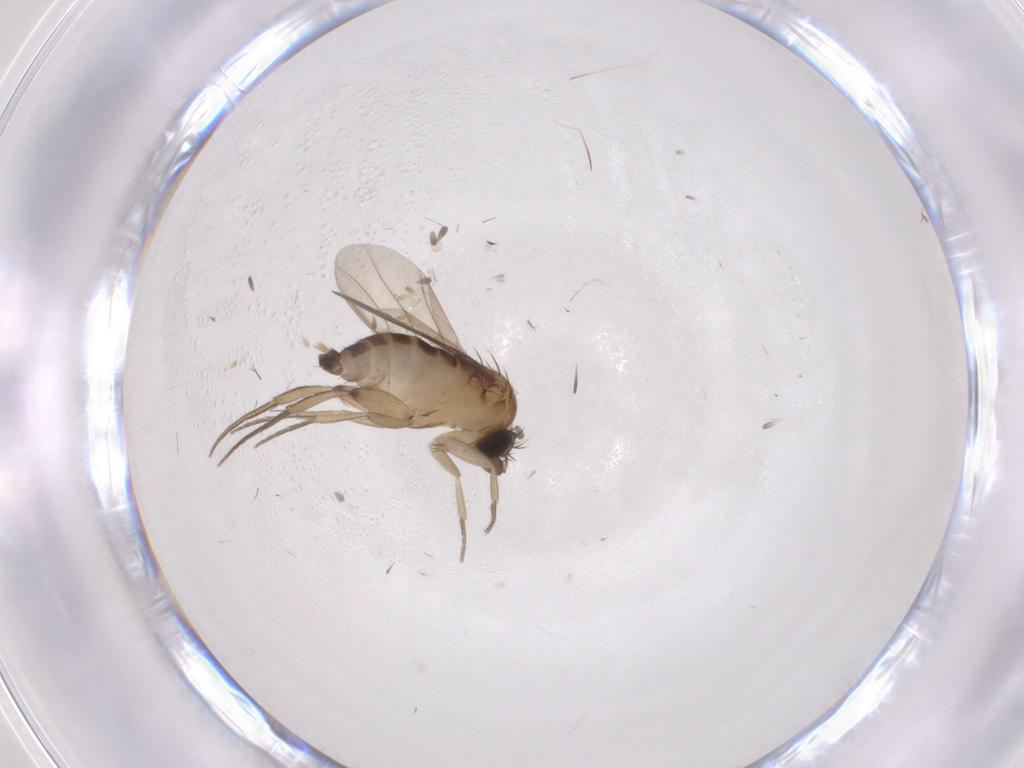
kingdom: Animalia
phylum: Arthropoda
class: Insecta
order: Diptera
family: Phoridae
